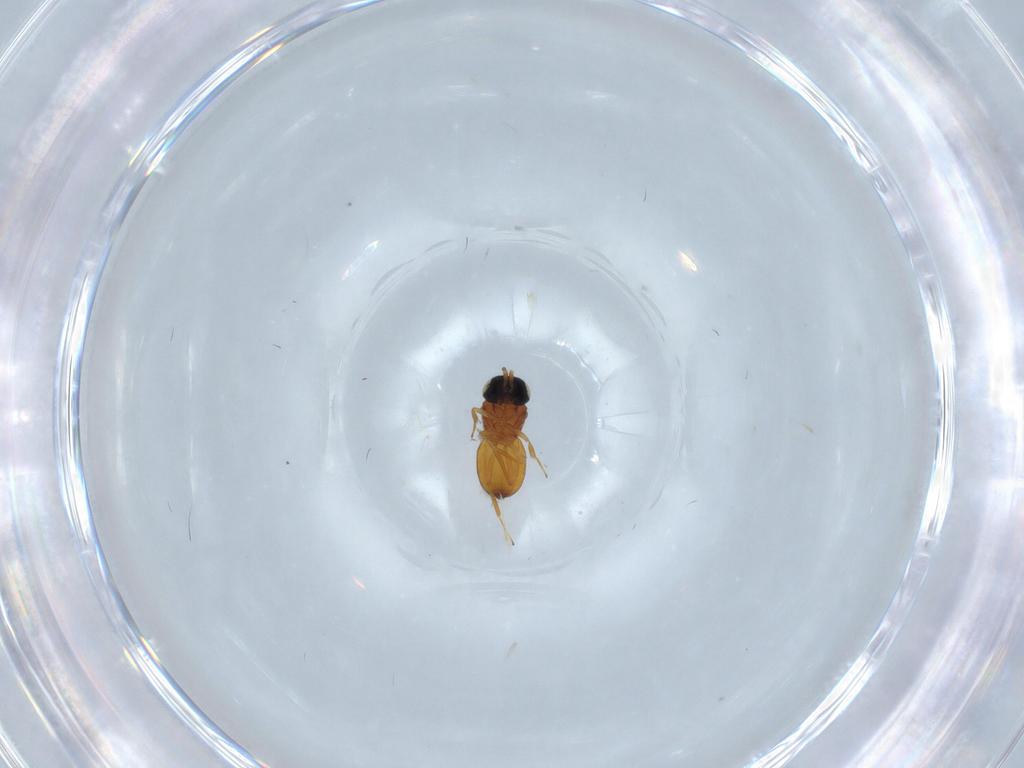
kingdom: Animalia
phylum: Arthropoda
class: Insecta
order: Hymenoptera
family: Scelionidae
